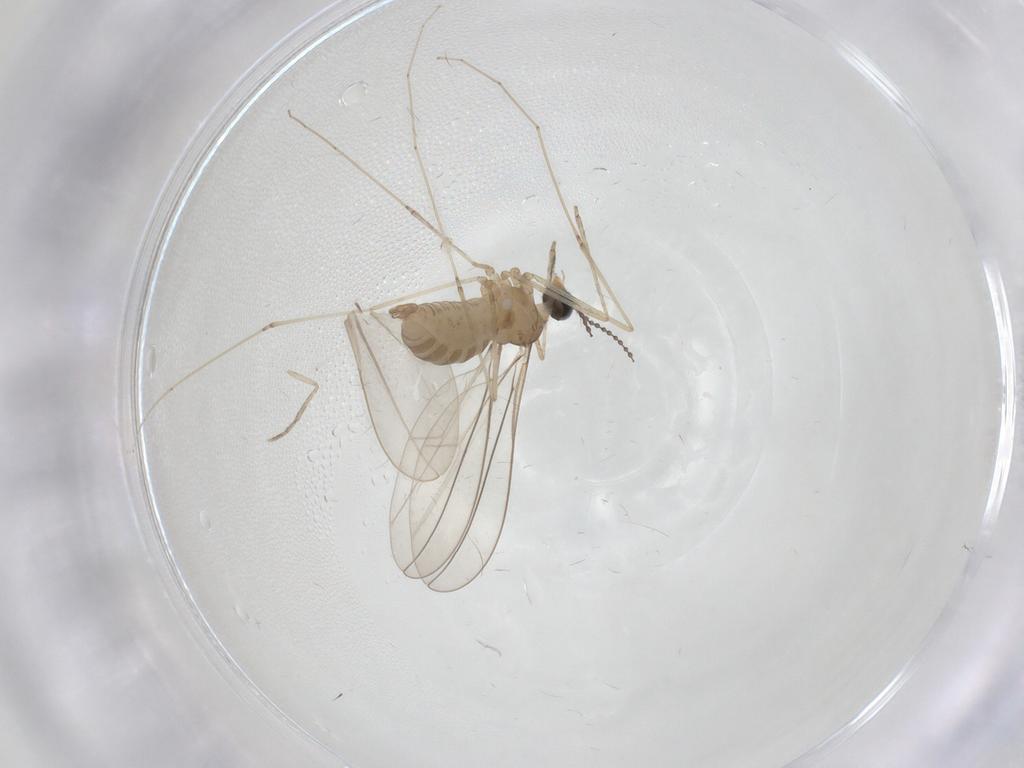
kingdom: Animalia
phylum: Arthropoda
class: Insecta
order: Diptera
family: Cecidomyiidae
